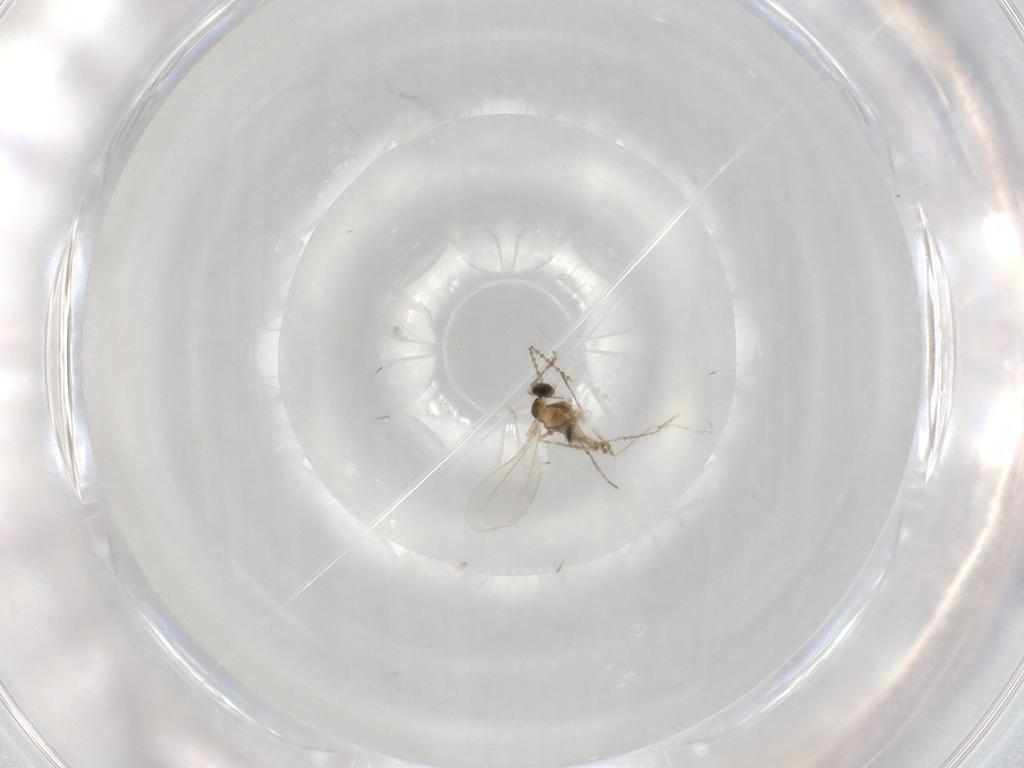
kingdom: Animalia
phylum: Arthropoda
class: Insecta
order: Diptera
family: Cecidomyiidae
